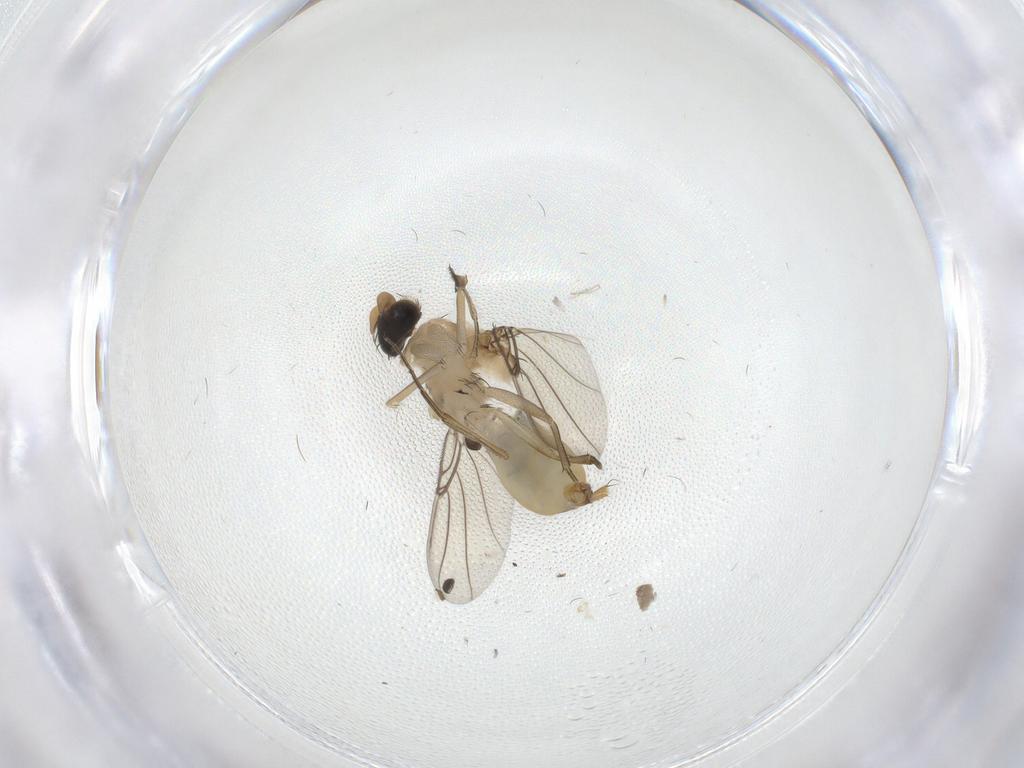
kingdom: Animalia
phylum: Arthropoda
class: Insecta
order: Diptera
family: Phoridae
